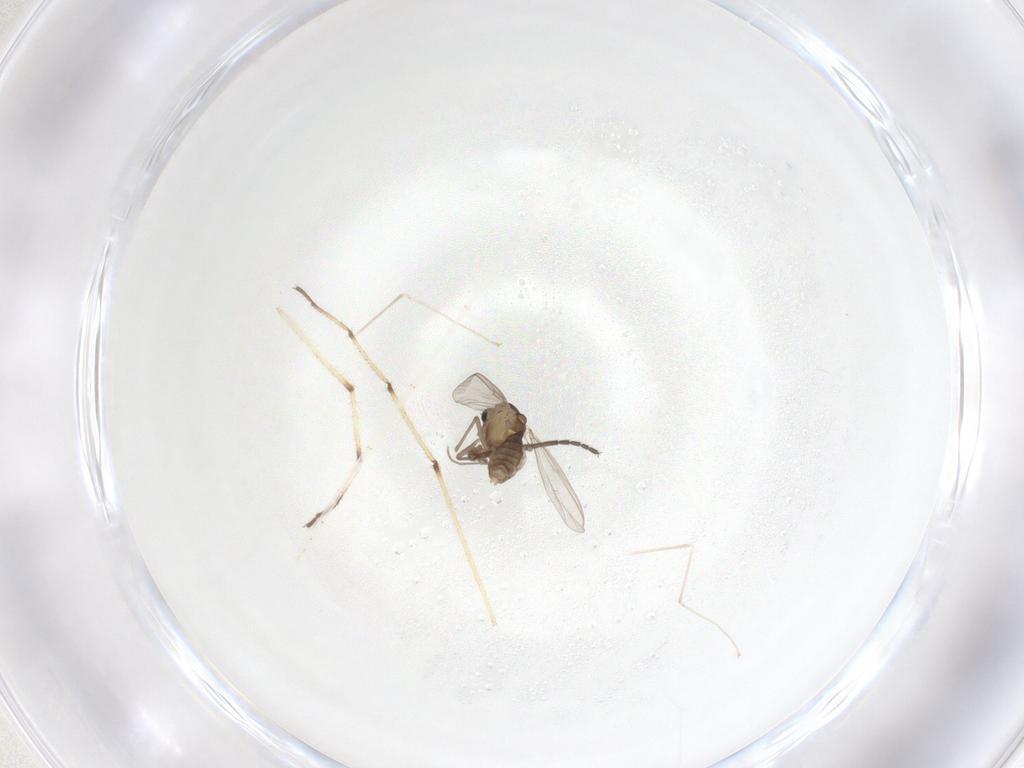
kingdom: Animalia
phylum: Arthropoda
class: Insecta
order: Diptera
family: Chironomidae
